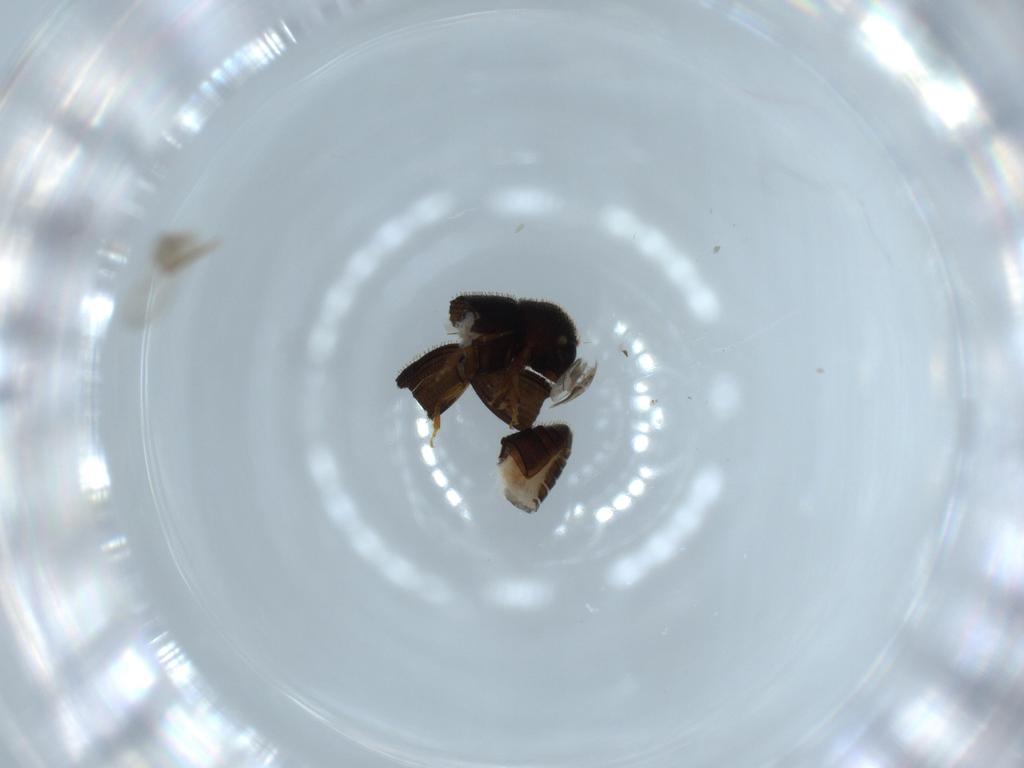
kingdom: Animalia
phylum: Arthropoda
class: Insecta
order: Coleoptera
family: Curculionidae
